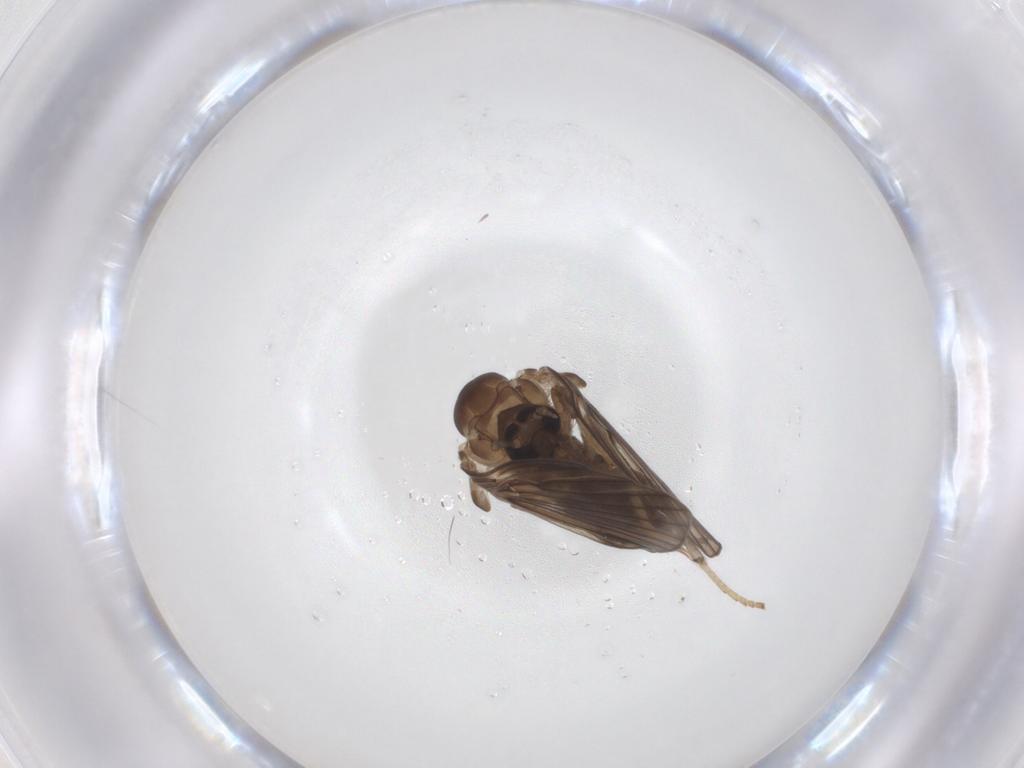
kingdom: Animalia
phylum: Arthropoda
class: Insecta
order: Diptera
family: Psychodidae
